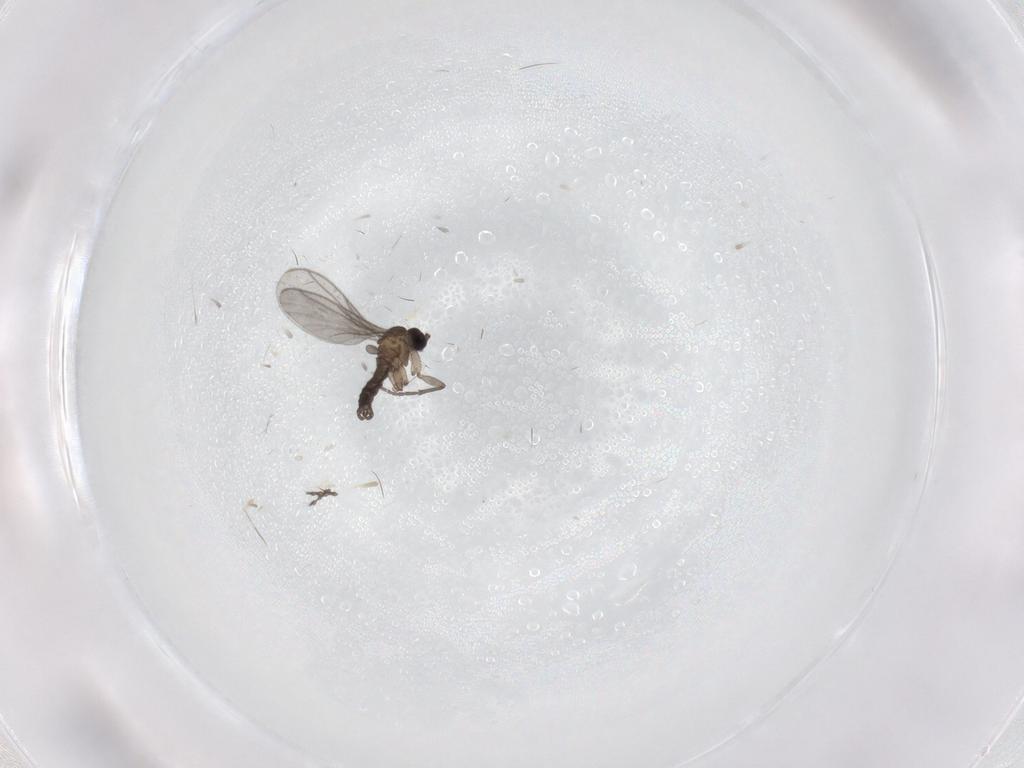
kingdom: Animalia
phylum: Arthropoda
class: Insecta
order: Diptera
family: Sciaridae
